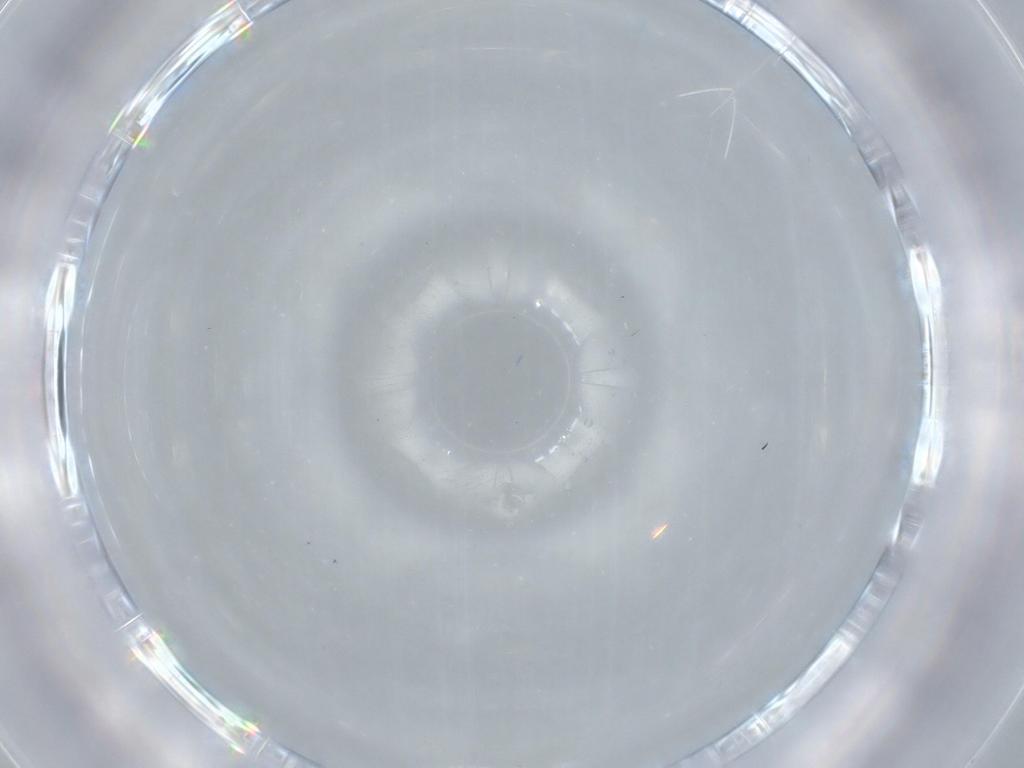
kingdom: Animalia
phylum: Arthropoda
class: Insecta
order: Hymenoptera
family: Scelionidae
